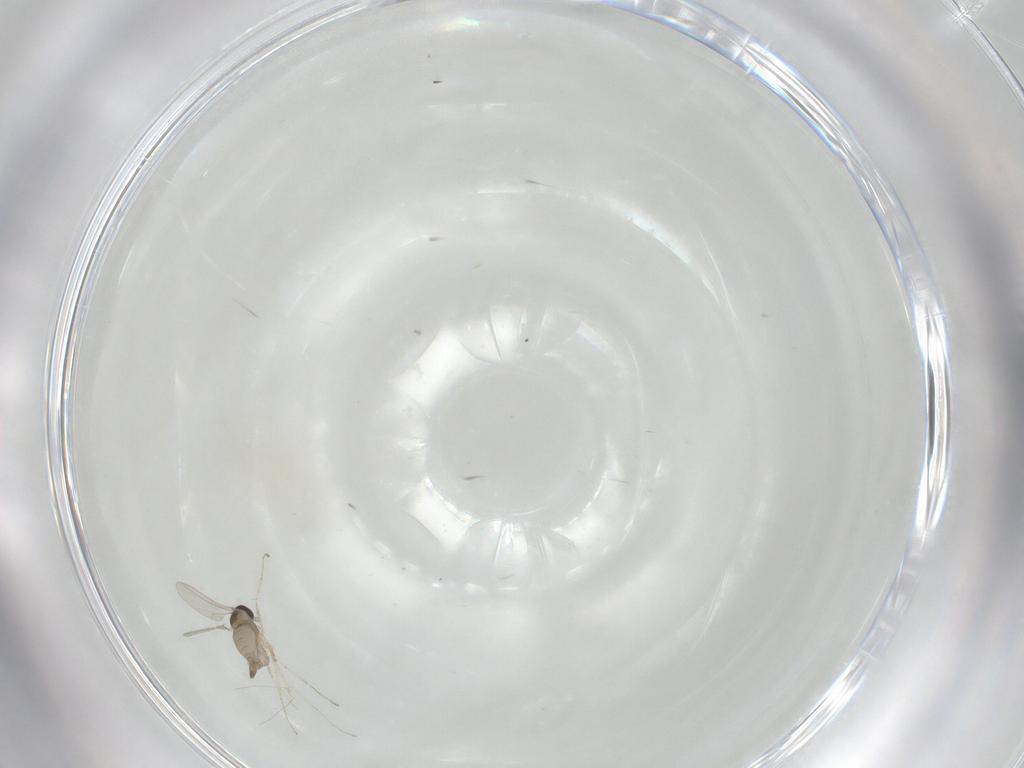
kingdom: Animalia
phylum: Arthropoda
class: Insecta
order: Diptera
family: Cecidomyiidae
